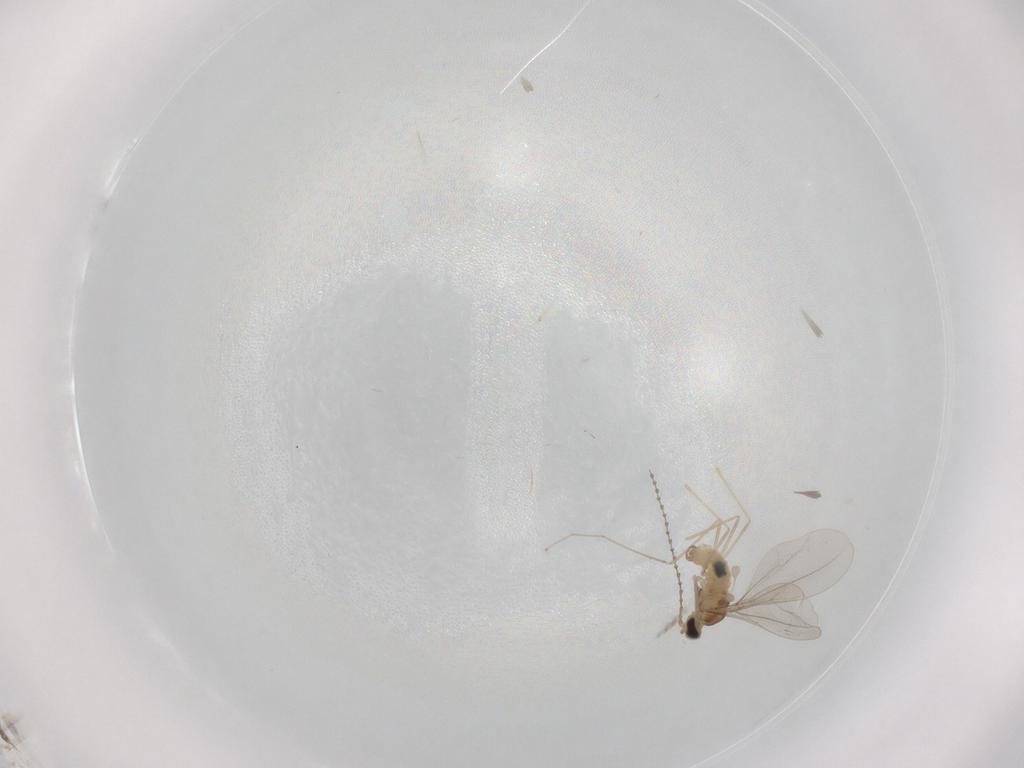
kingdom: Animalia
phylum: Arthropoda
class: Insecta
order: Diptera
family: Cecidomyiidae
